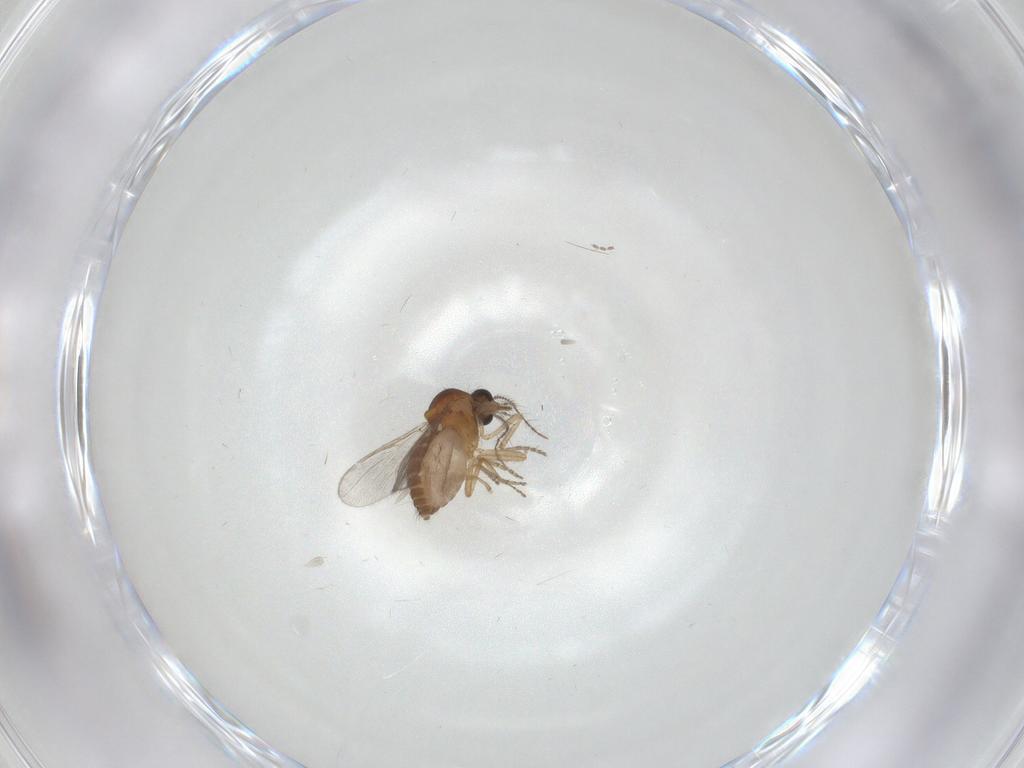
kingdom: Animalia
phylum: Arthropoda
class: Insecta
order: Diptera
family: Ceratopogonidae
